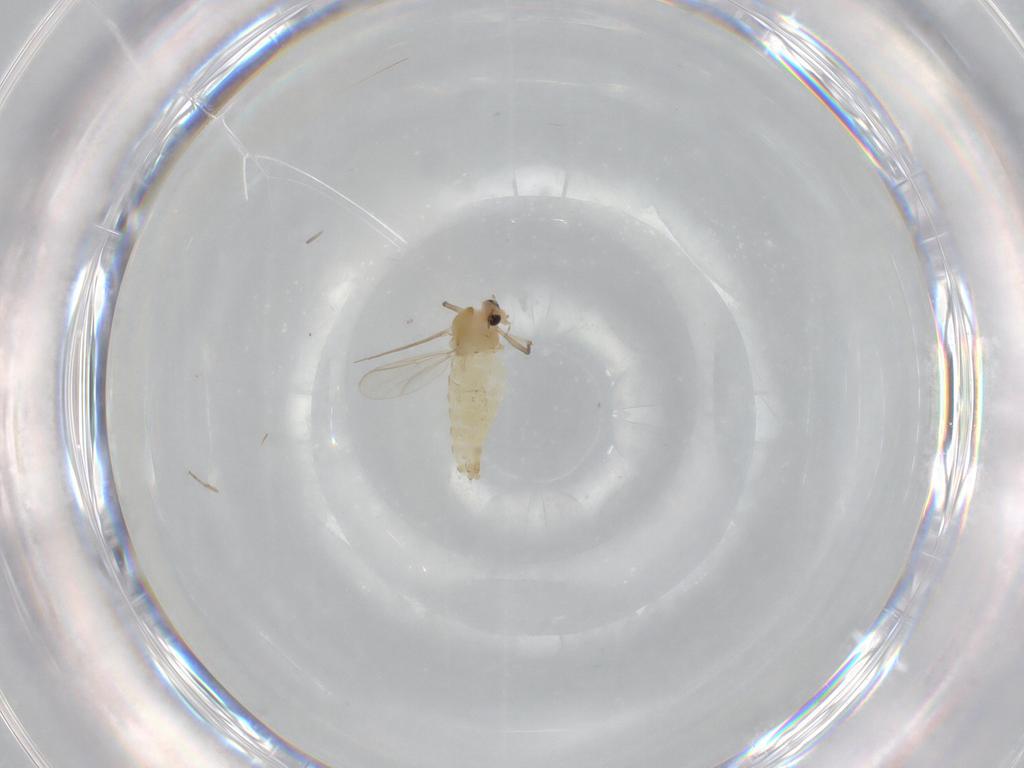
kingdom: Animalia
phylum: Arthropoda
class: Insecta
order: Diptera
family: Chironomidae
